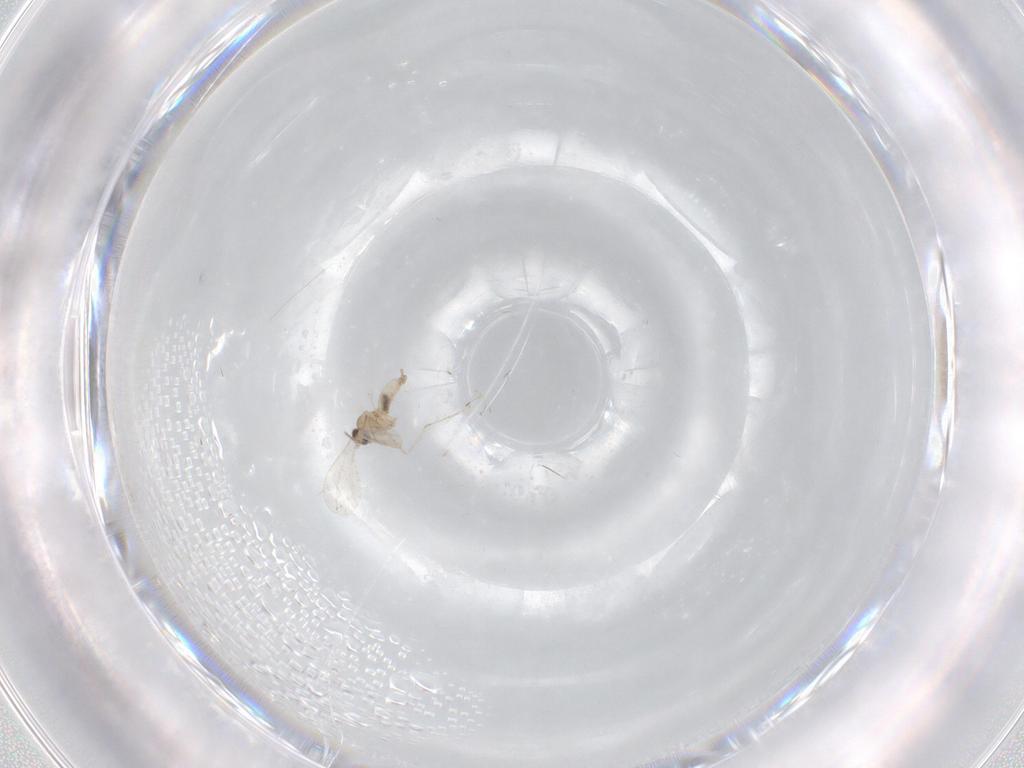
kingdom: Animalia
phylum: Arthropoda
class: Insecta
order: Diptera
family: Cecidomyiidae
